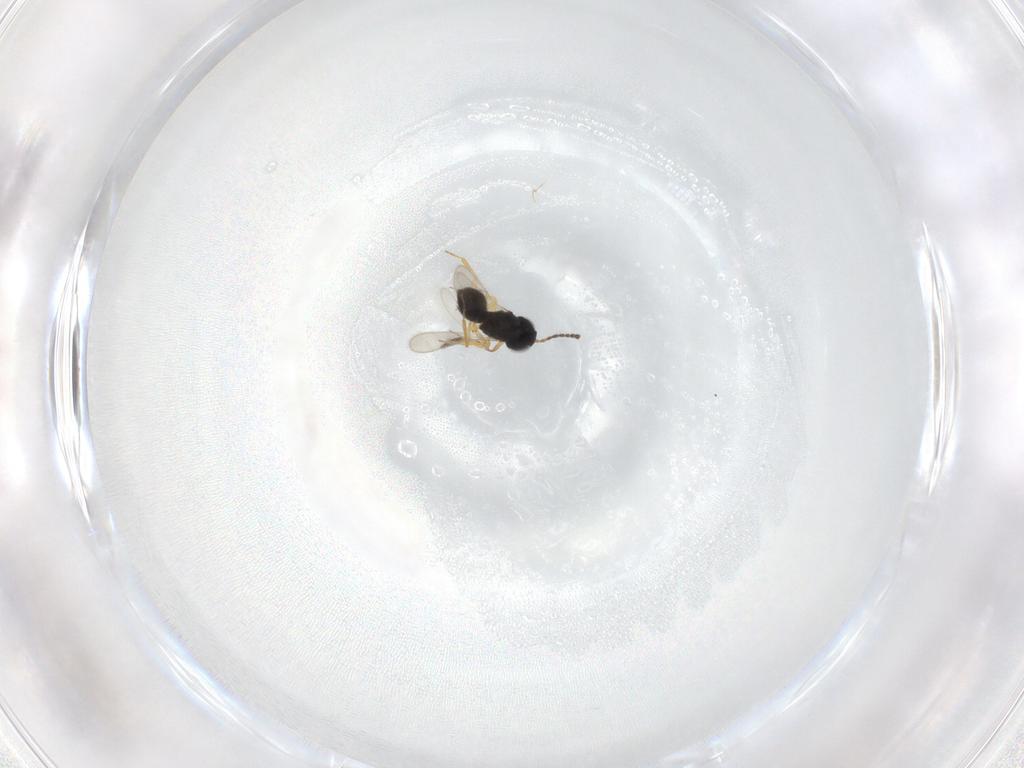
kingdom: Animalia
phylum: Arthropoda
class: Insecta
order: Hymenoptera
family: Scelionidae
